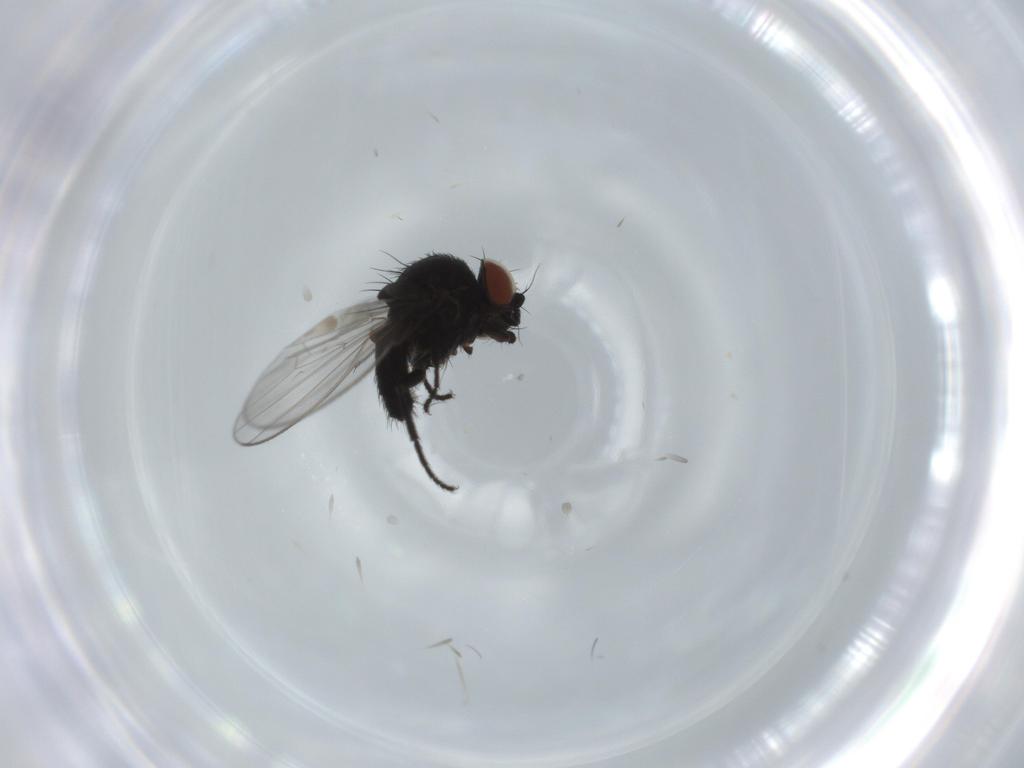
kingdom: Animalia
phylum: Arthropoda
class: Insecta
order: Diptera
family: Milichiidae
